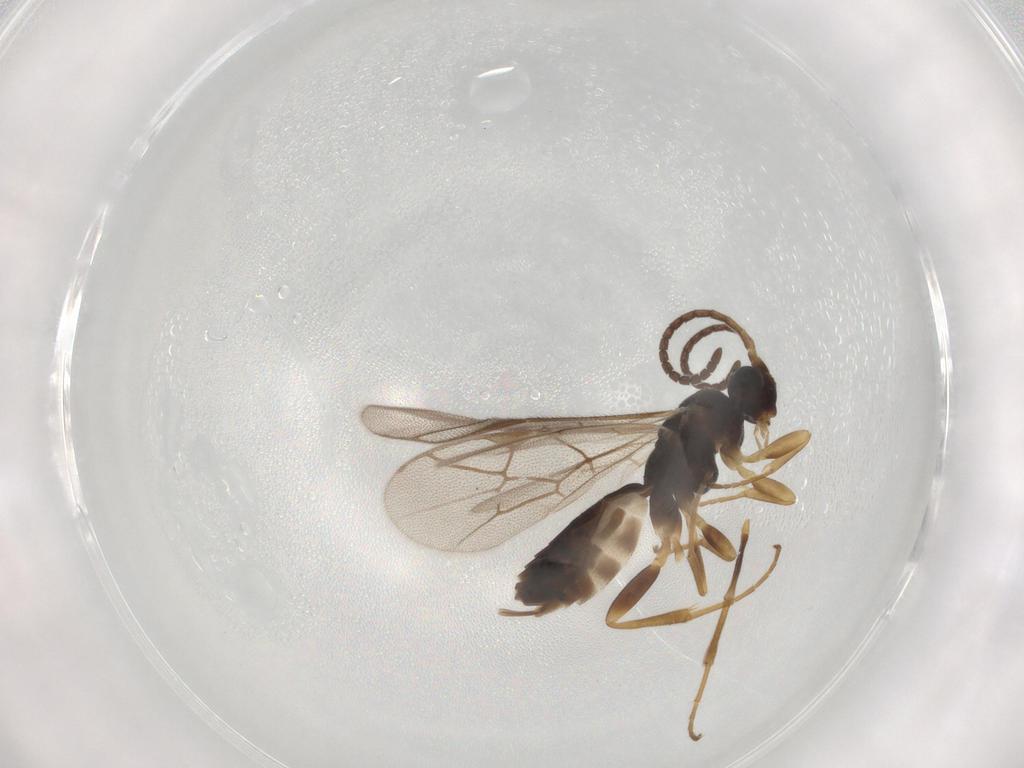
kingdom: Animalia
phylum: Arthropoda
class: Insecta
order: Hymenoptera
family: Ichneumonidae
